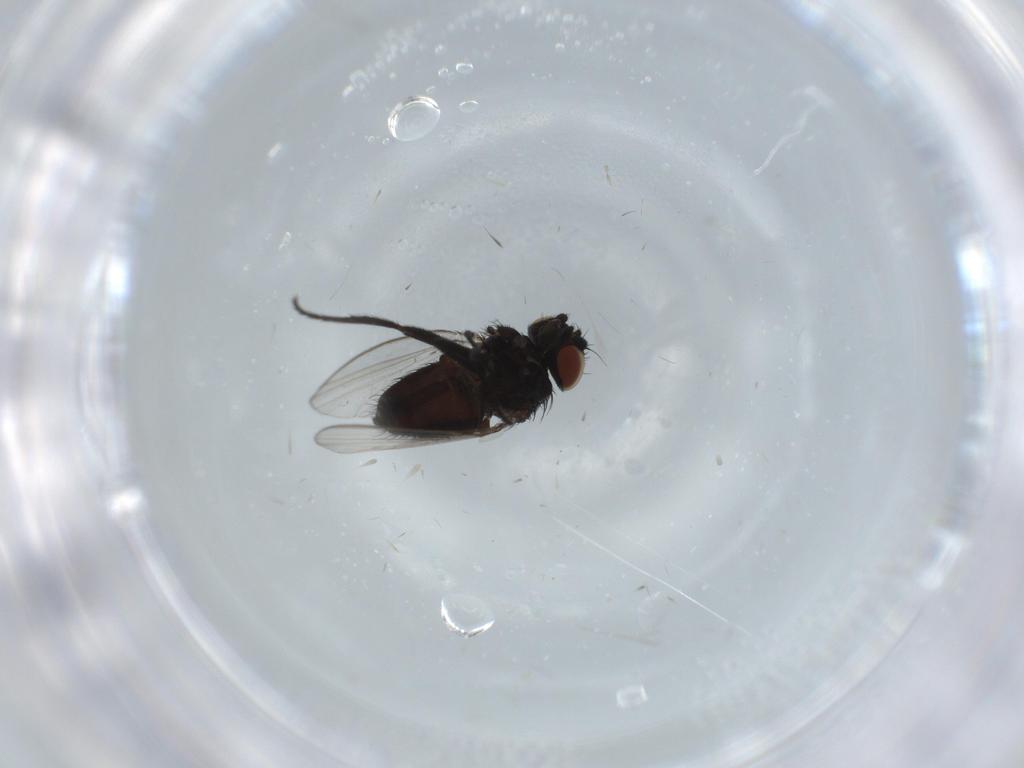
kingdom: Animalia
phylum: Arthropoda
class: Insecta
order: Diptera
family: Milichiidae
